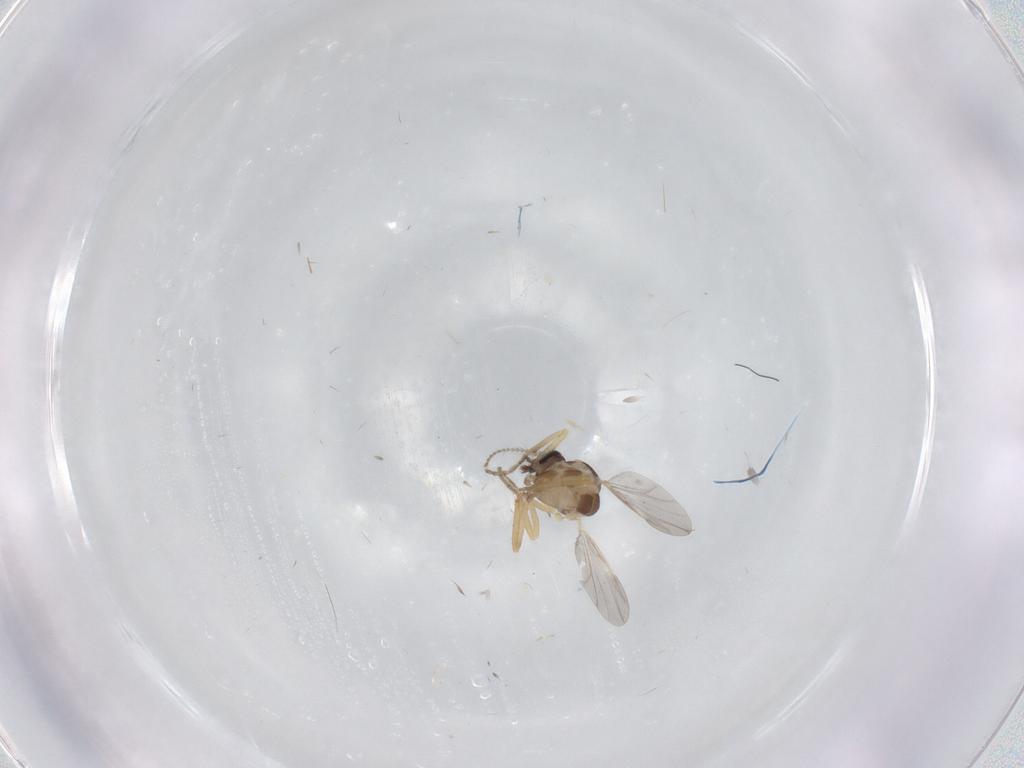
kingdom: Animalia
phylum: Arthropoda
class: Insecta
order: Diptera
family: Ceratopogonidae
